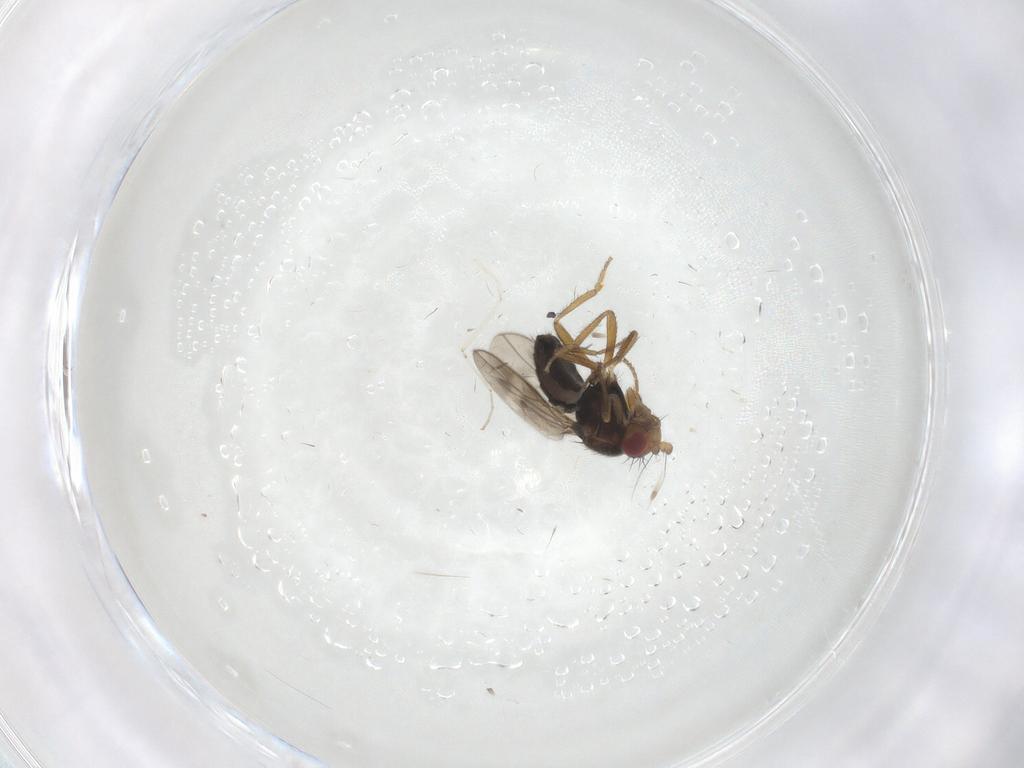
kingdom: Animalia
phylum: Arthropoda
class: Insecta
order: Diptera
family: Sphaeroceridae
